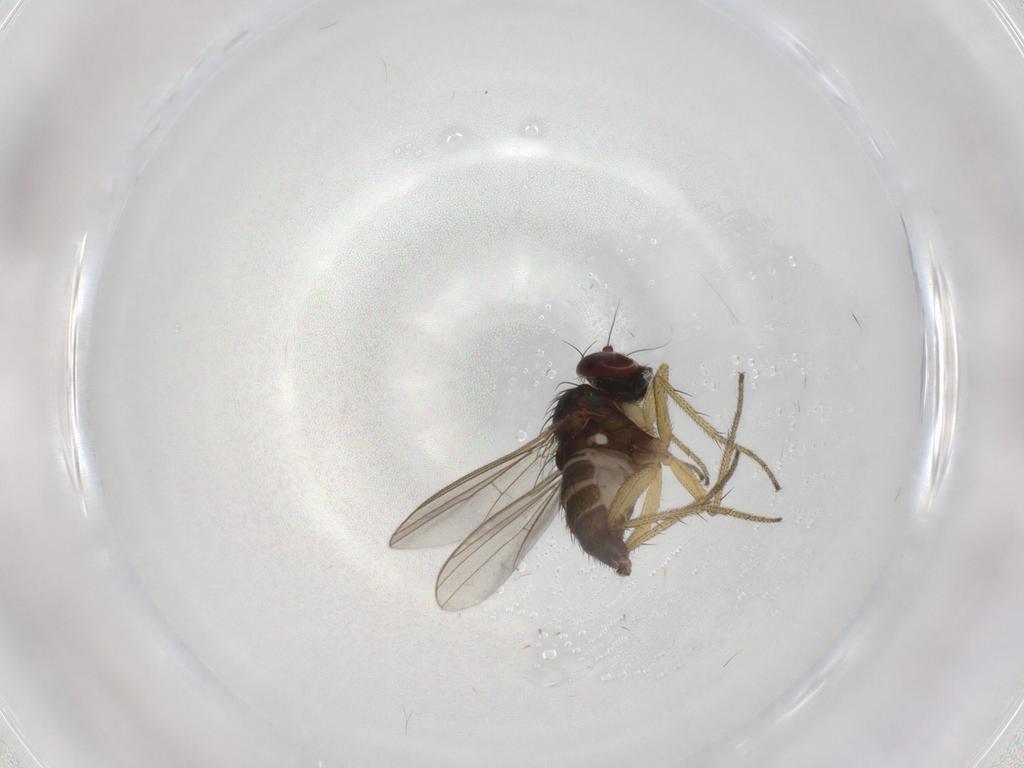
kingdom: Animalia
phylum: Arthropoda
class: Insecta
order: Diptera
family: Dolichopodidae
